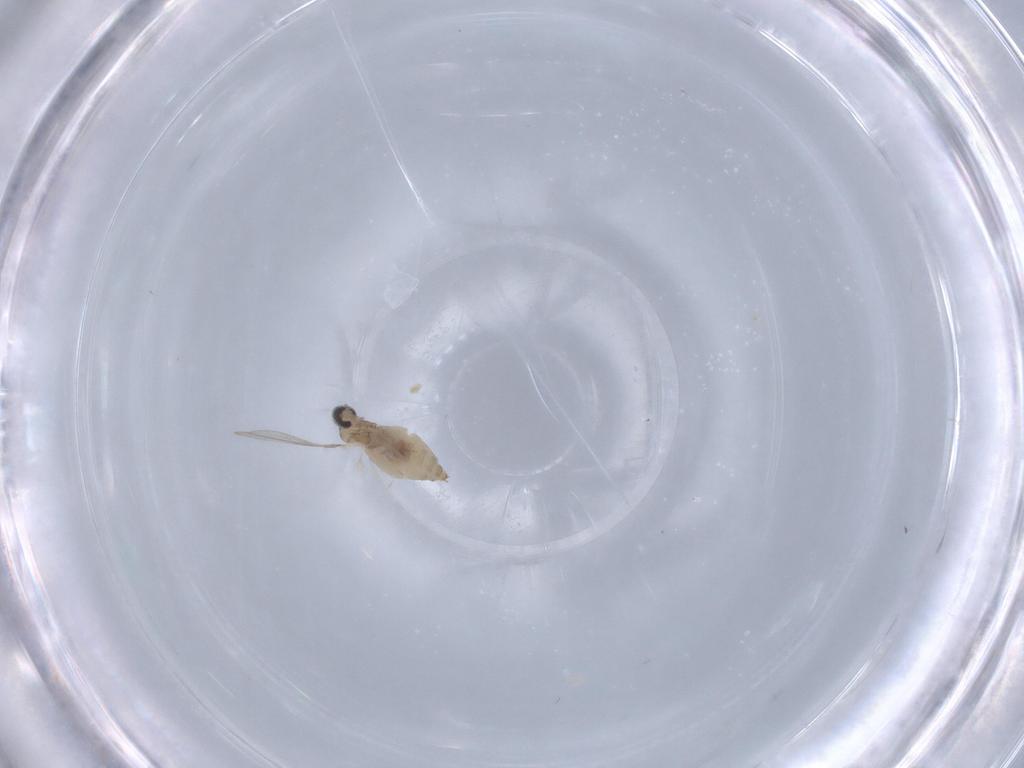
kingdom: Animalia
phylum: Arthropoda
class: Insecta
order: Diptera
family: Cecidomyiidae
